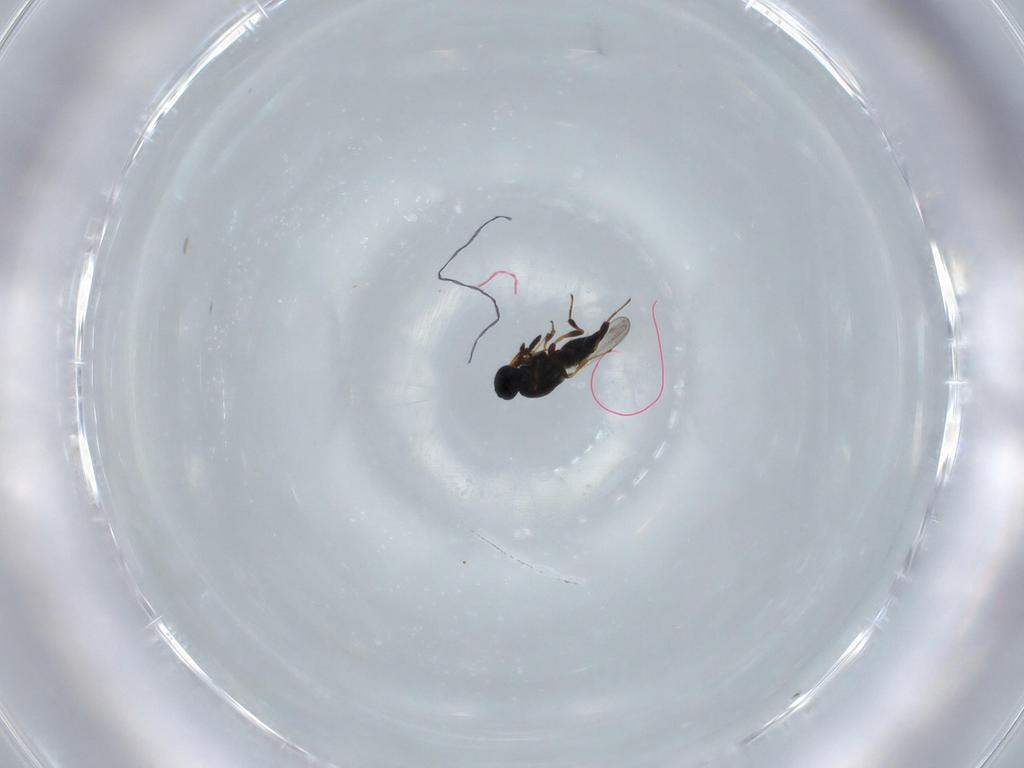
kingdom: Animalia
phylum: Arthropoda
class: Insecta
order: Hymenoptera
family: Platygastridae
